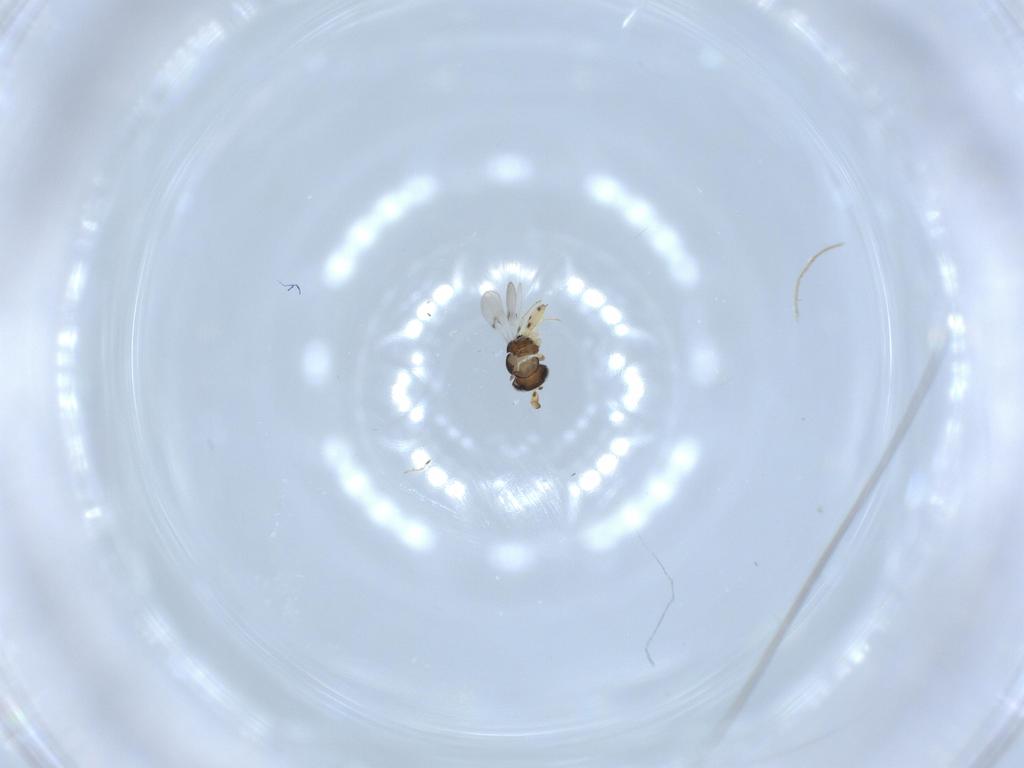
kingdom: Animalia
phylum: Arthropoda
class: Insecta
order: Hymenoptera
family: Scelionidae
